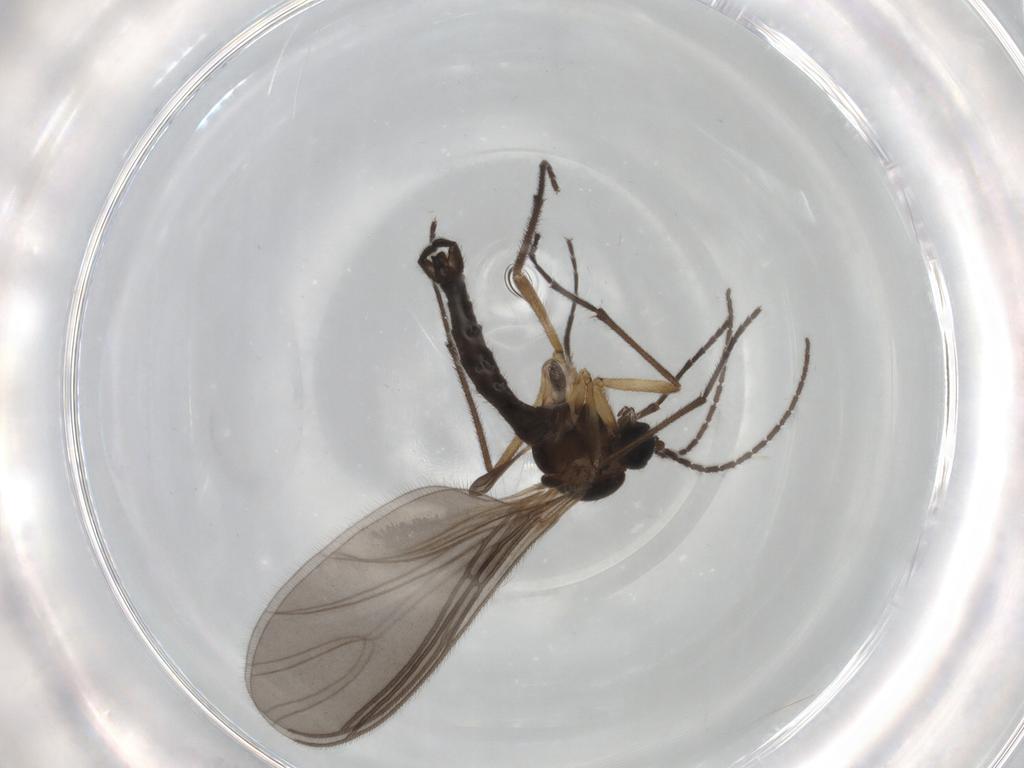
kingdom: Animalia
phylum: Arthropoda
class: Insecta
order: Diptera
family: Sciaridae
